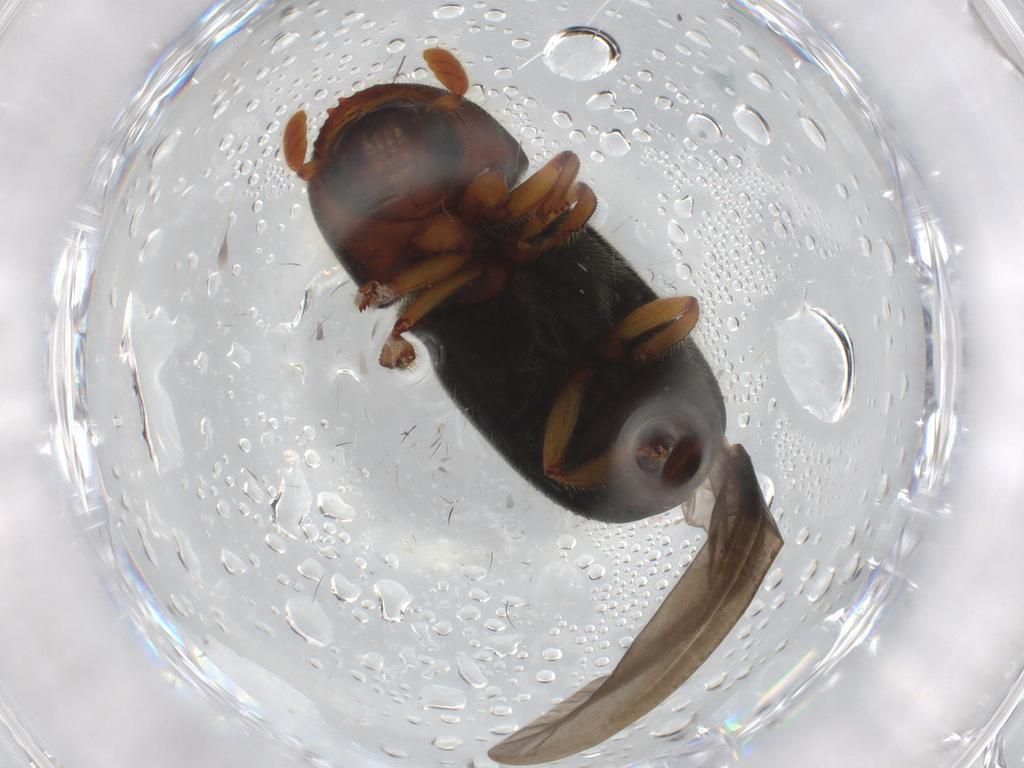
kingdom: Animalia
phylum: Arthropoda
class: Insecta
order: Coleoptera
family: Curculionidae
